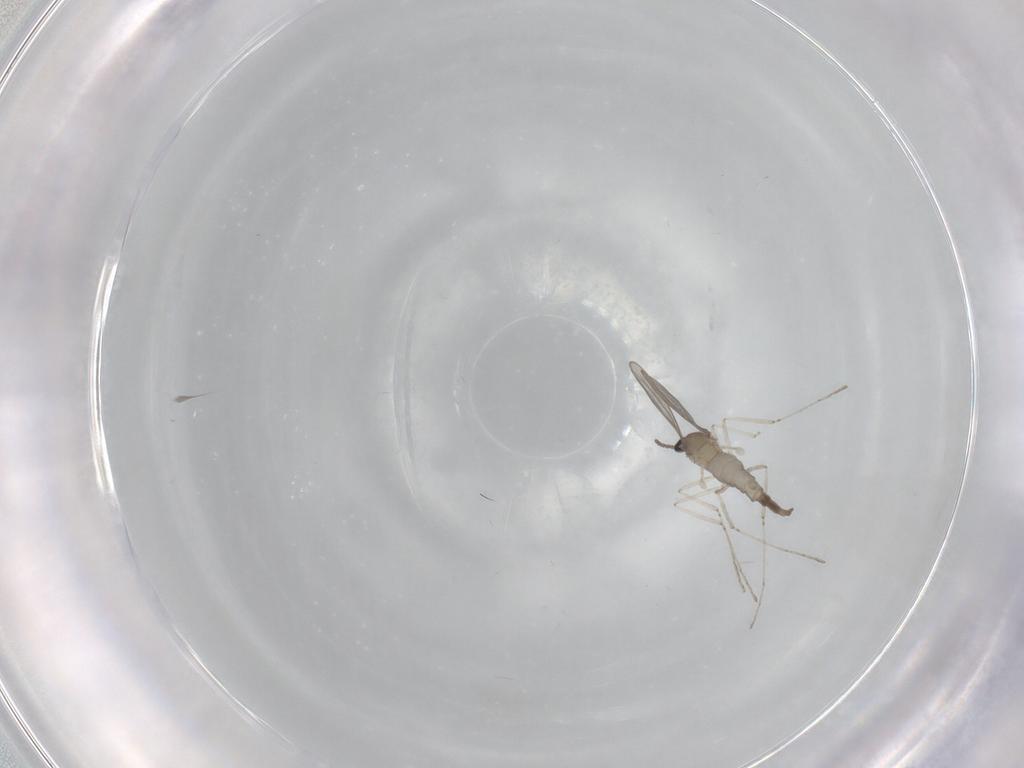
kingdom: Animalia
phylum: Arthropoda
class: Insecta
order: Diptera
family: Cecidomyiidae
